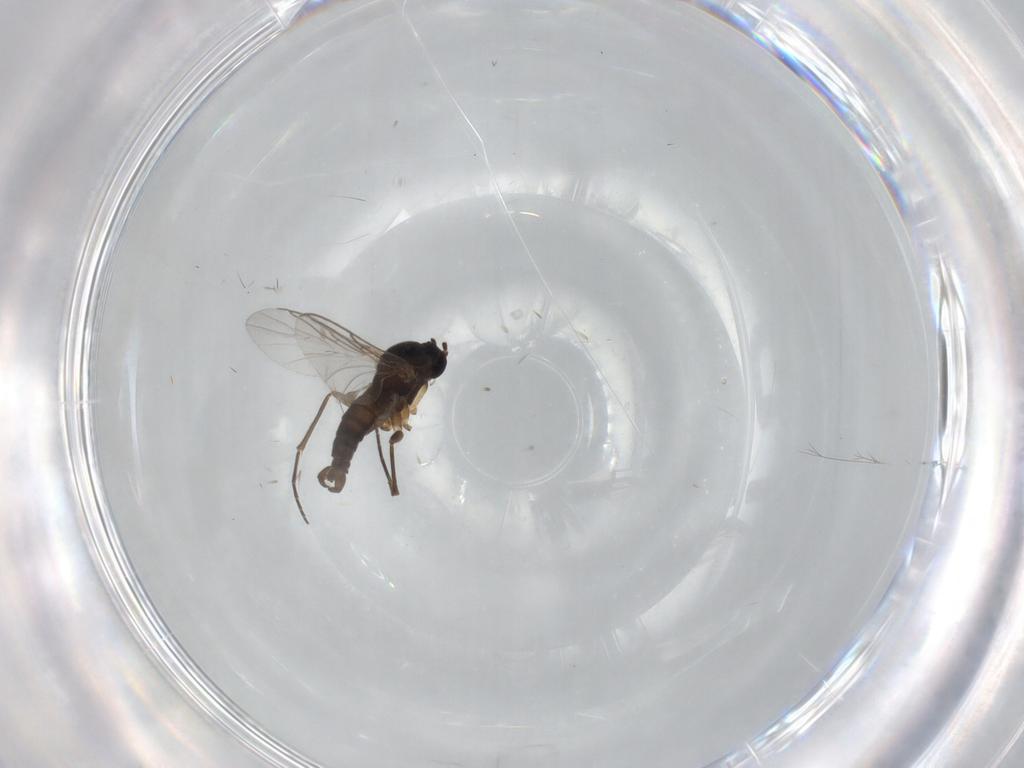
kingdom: Animalia
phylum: Arthropoda
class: Insecta
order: Diptera
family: Sciaridae
